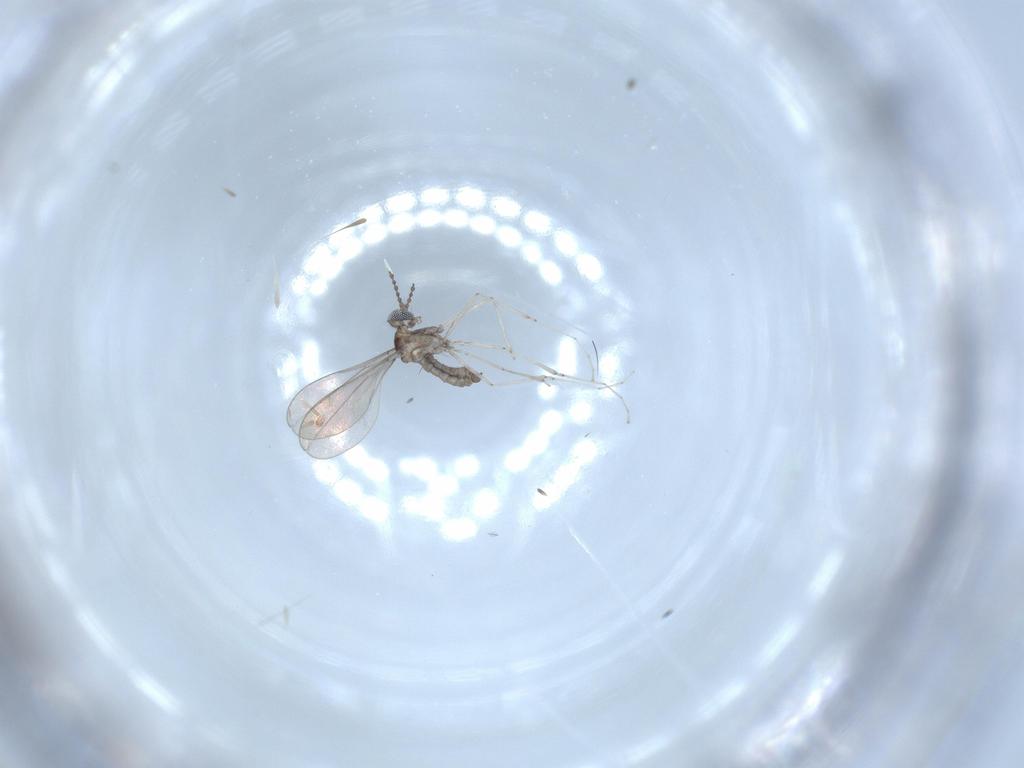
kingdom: Animalia
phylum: Arthropoda
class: Insecta
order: Diptera
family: Cecidomyiidae
